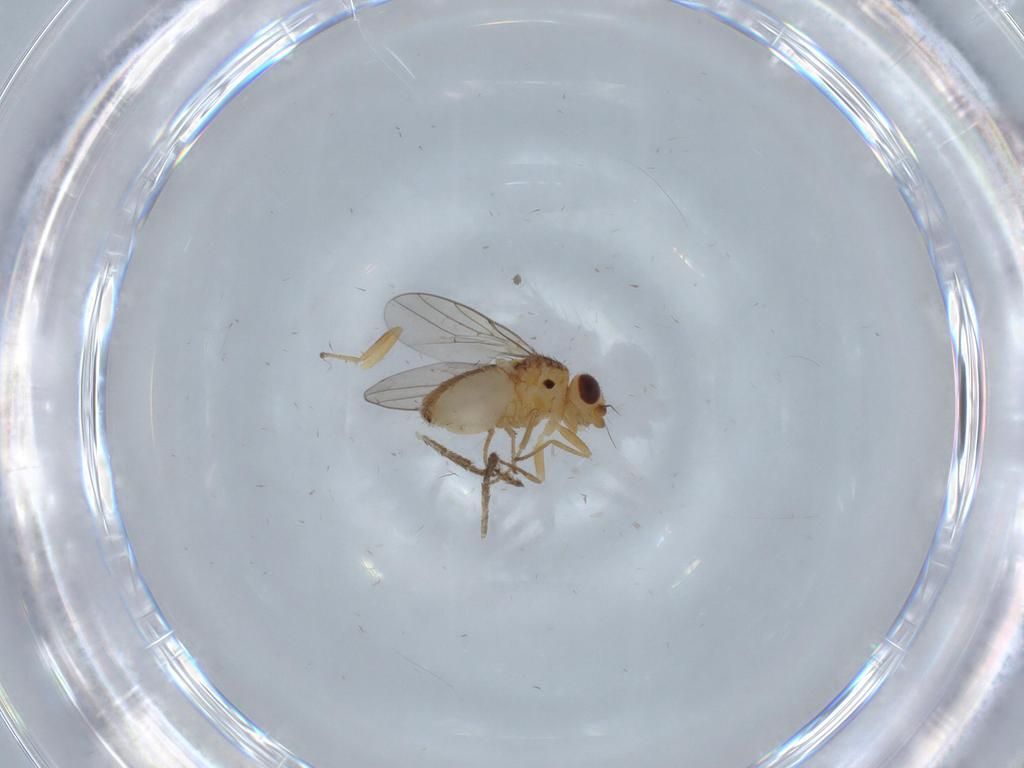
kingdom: Animalia
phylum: Arthropoda
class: Insecta
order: Diptera
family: Chloropidae
